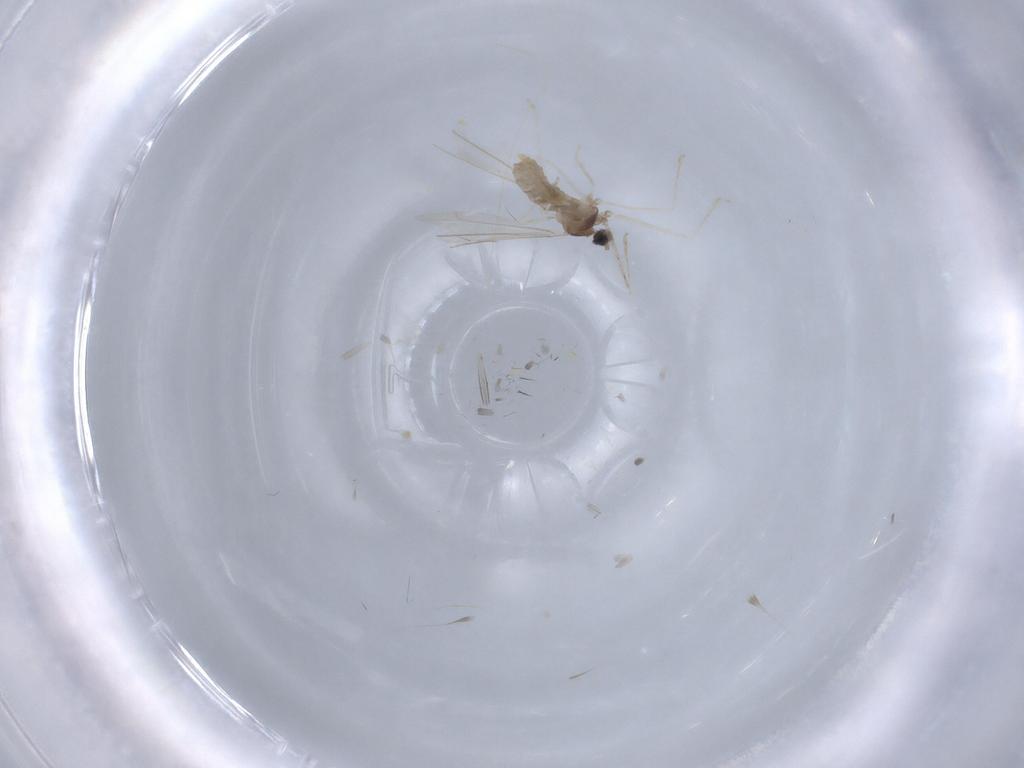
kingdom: Animalia
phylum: Arthropoda
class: Insecta
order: Diptera
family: Cecidomyiidae
